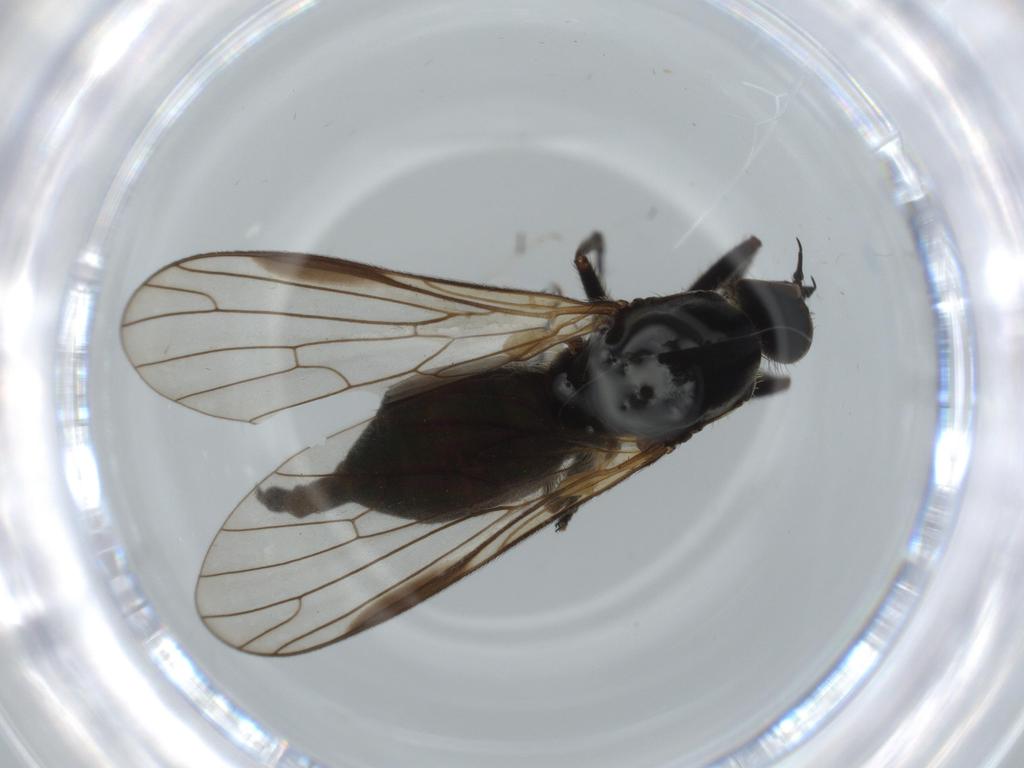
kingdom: Animalia
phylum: Arthropoda
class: Insecta
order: Diptera
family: Empididae
